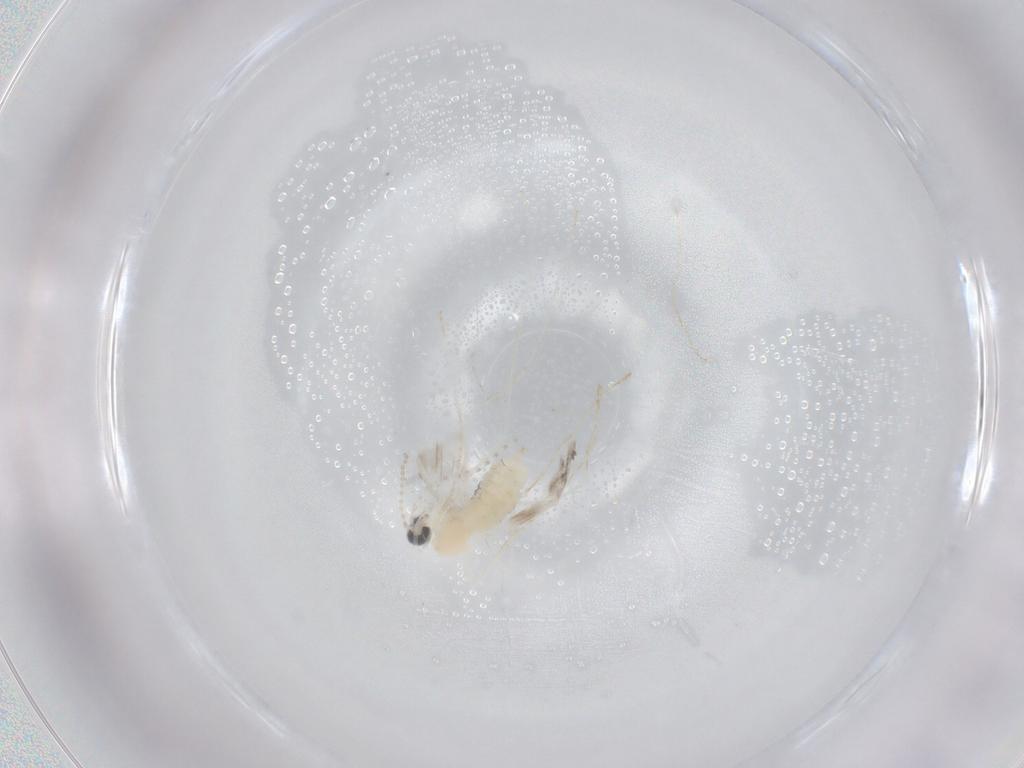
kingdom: Animalia
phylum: Arthropoda
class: Insecta
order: Diptera
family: Cecidomyiidae
